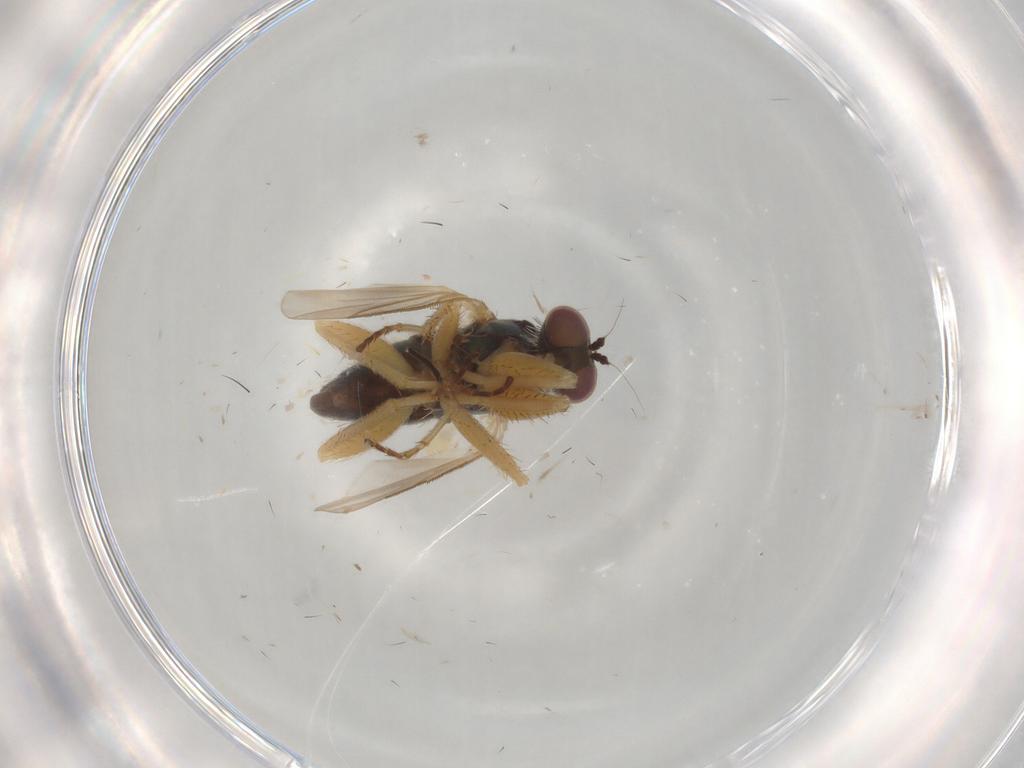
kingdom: Animalia
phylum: Arthropoda
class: Insecta
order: Diptera
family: Dolichopodidae
